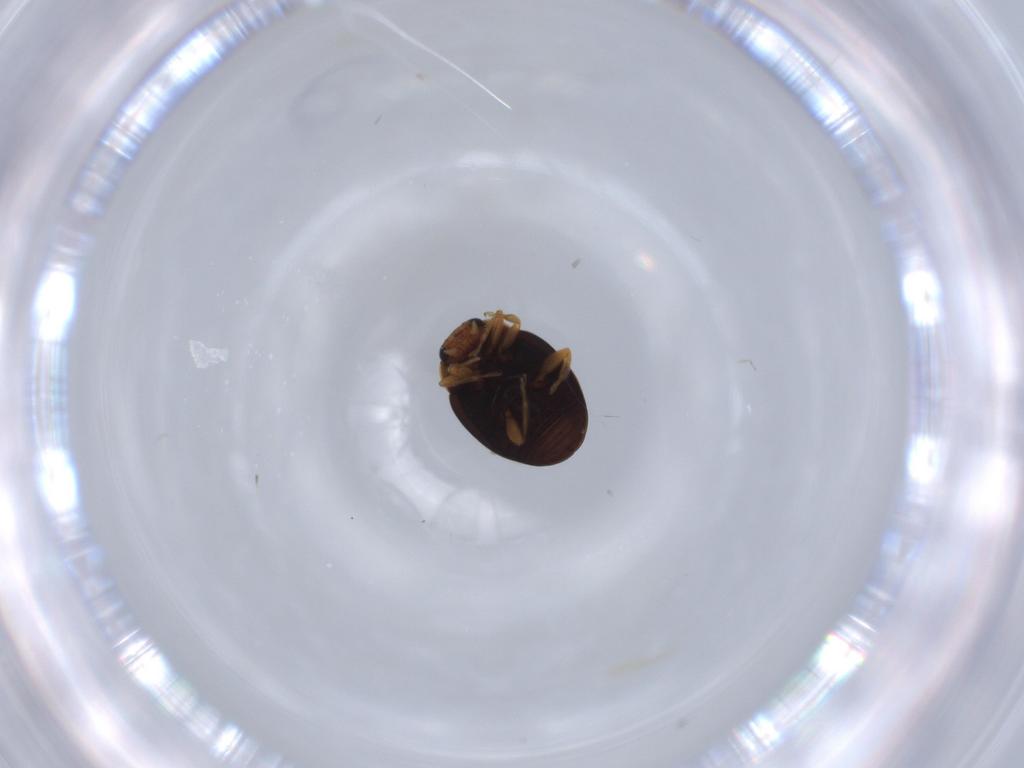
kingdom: Animalia
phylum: Arthropoda
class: Insecta
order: Coleoptera
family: Coccinellidae
